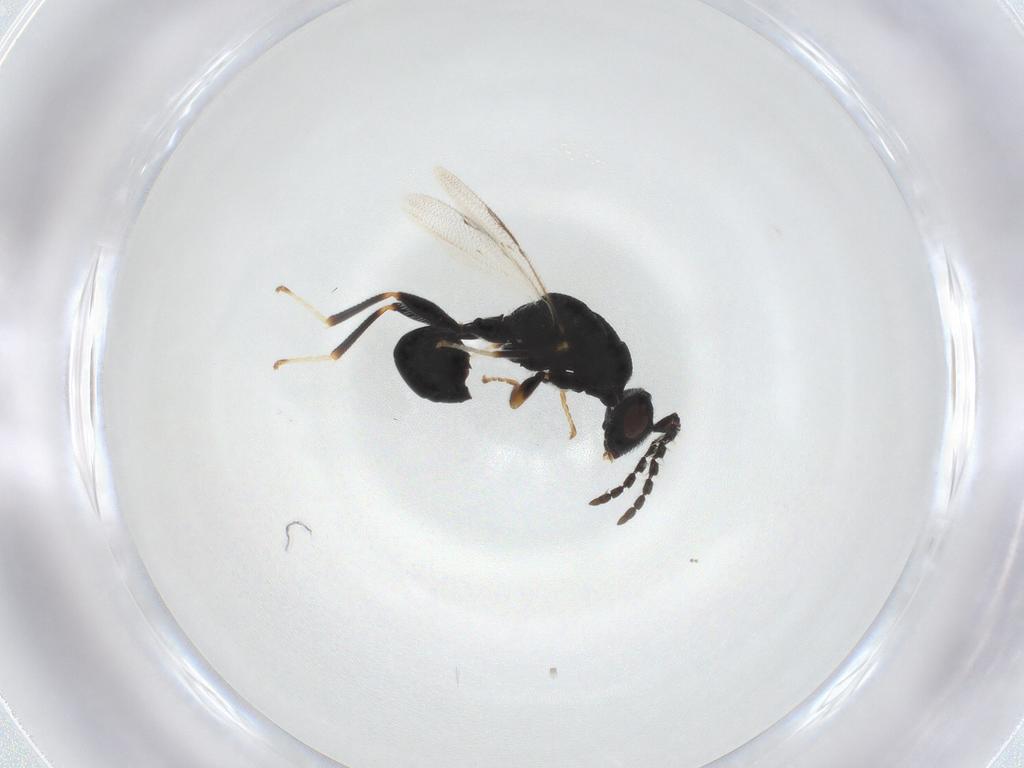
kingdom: Animalia
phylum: Arthropoda
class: Insecta
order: Hymenoptera
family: Eurytomidae
